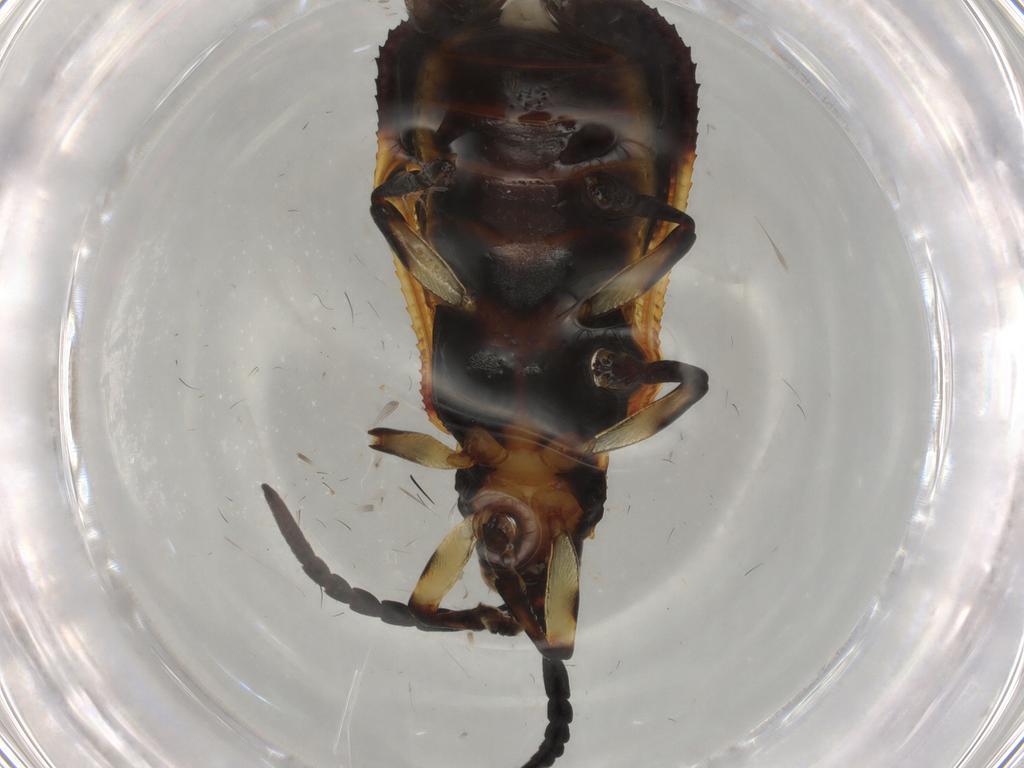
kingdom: Animalia
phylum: Arthropoda
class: Insecta
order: Coleoptera
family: Chrysomelidae
